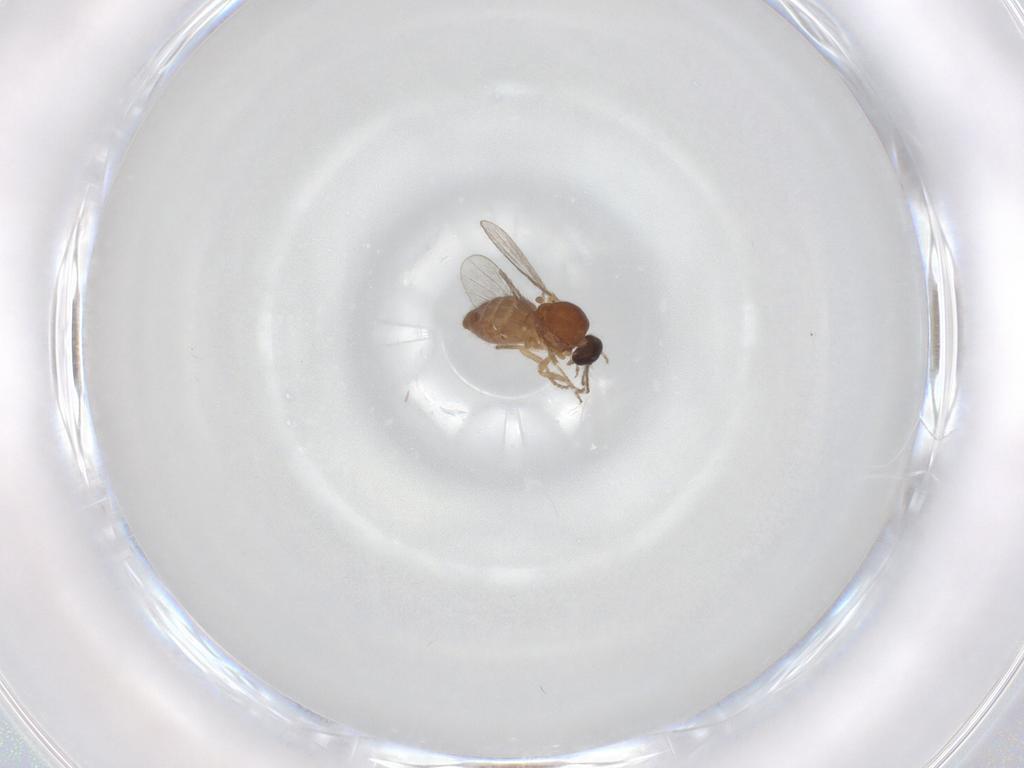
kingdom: Animalia
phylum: Arthropoda
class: Insecta
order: Diptera
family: Ceratopogonidae
